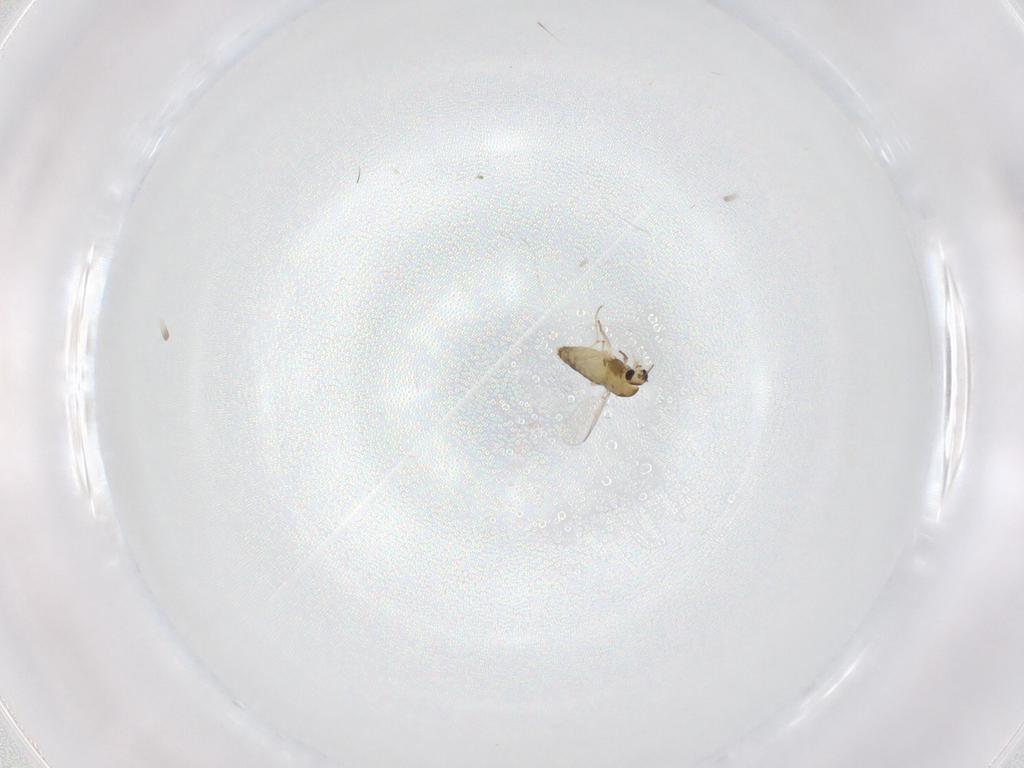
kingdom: Animalia
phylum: Arthropoda
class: Insecta
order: Diptera
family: Chironomidae
